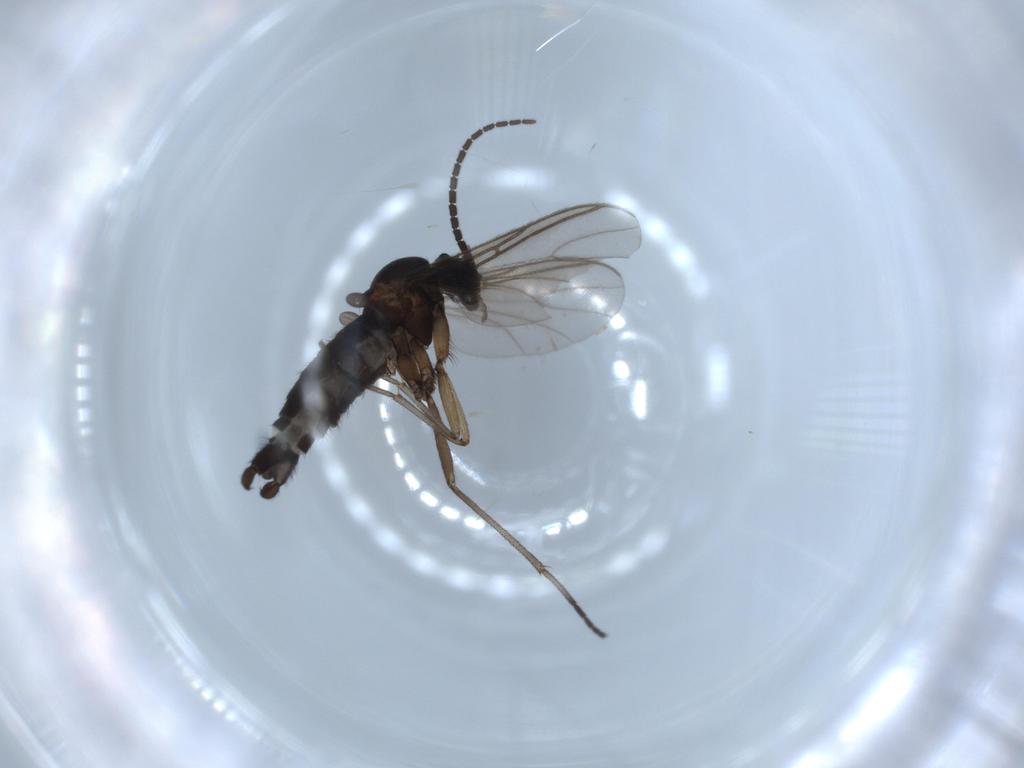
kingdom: Animalia
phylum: Arthropoda
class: Insecta
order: Diptera
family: Sciaridae
